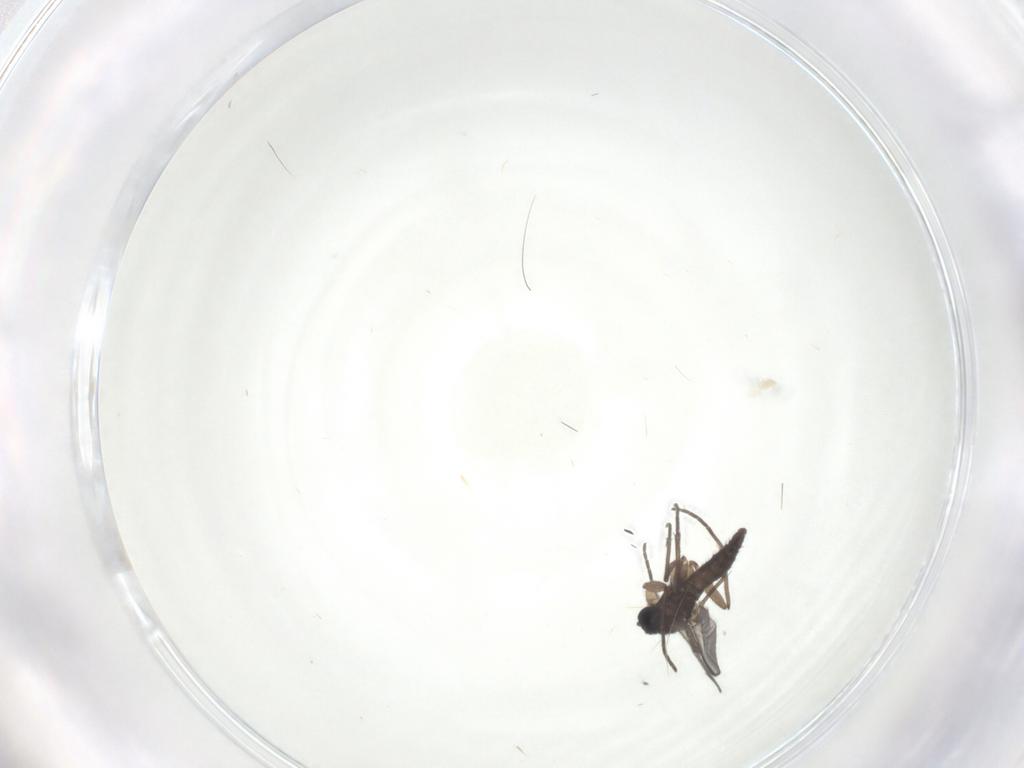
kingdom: Animalia
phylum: Arthropoda
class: Insecta
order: Diptera
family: Sciaridae
